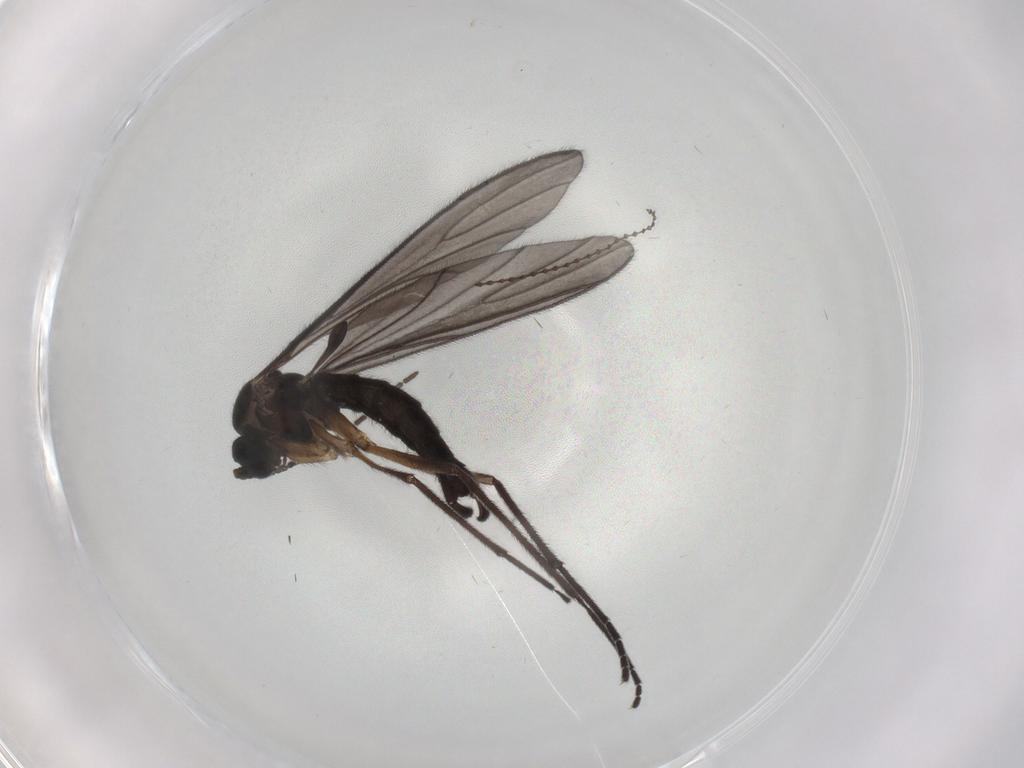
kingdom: Animalia
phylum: Arthropoda
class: Insecta
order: Diptera
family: Sciaridae
